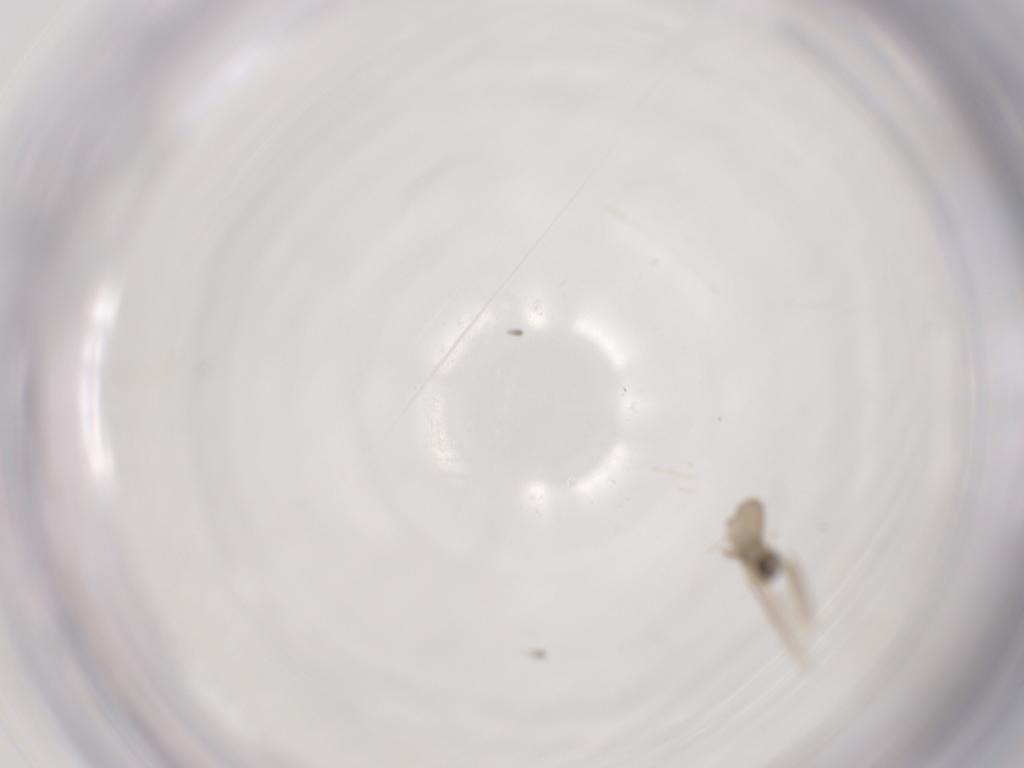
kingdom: Animalia
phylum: Arthropoda
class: Insecta
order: Diptera
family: Cecidomyiidae
